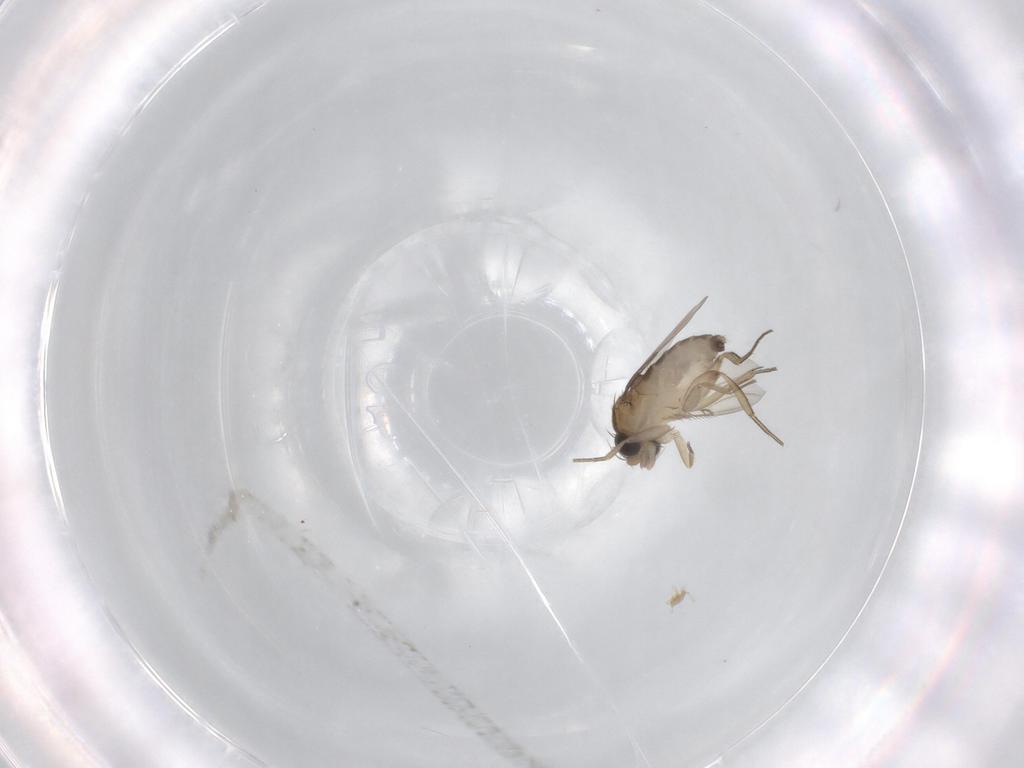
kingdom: Animalia
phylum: Arthropoda
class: Insecta
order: Diptera
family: Phoridae
